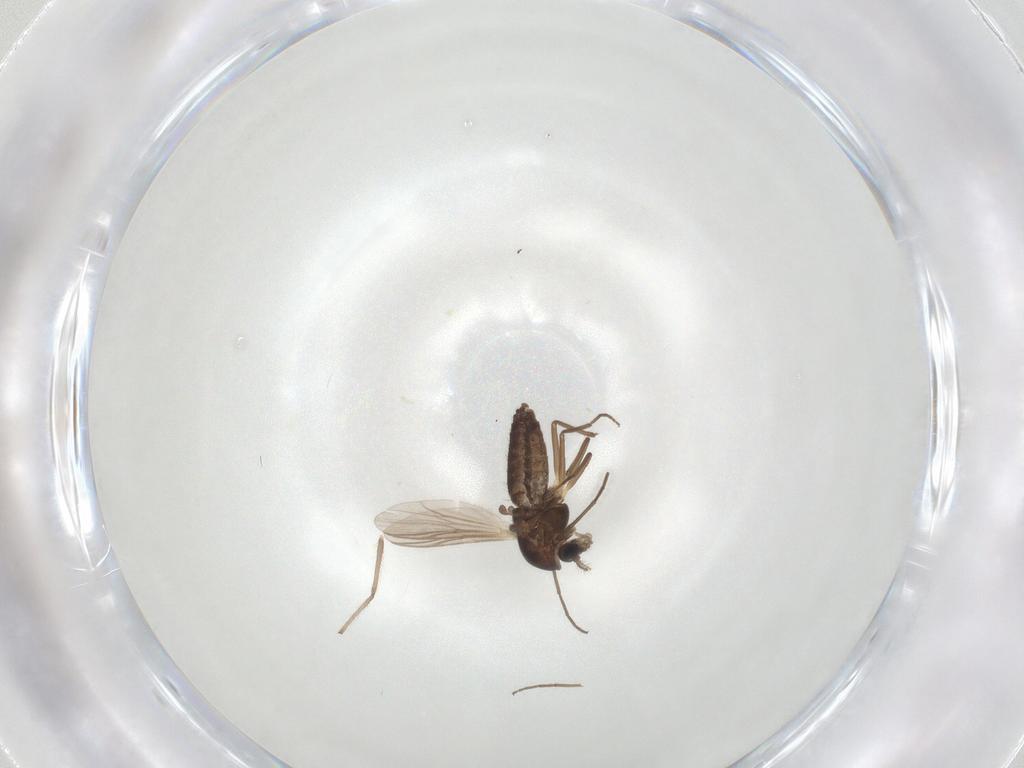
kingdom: Animalia
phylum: Arthropoda
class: Insecta
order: Diptera
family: Chironomidae
